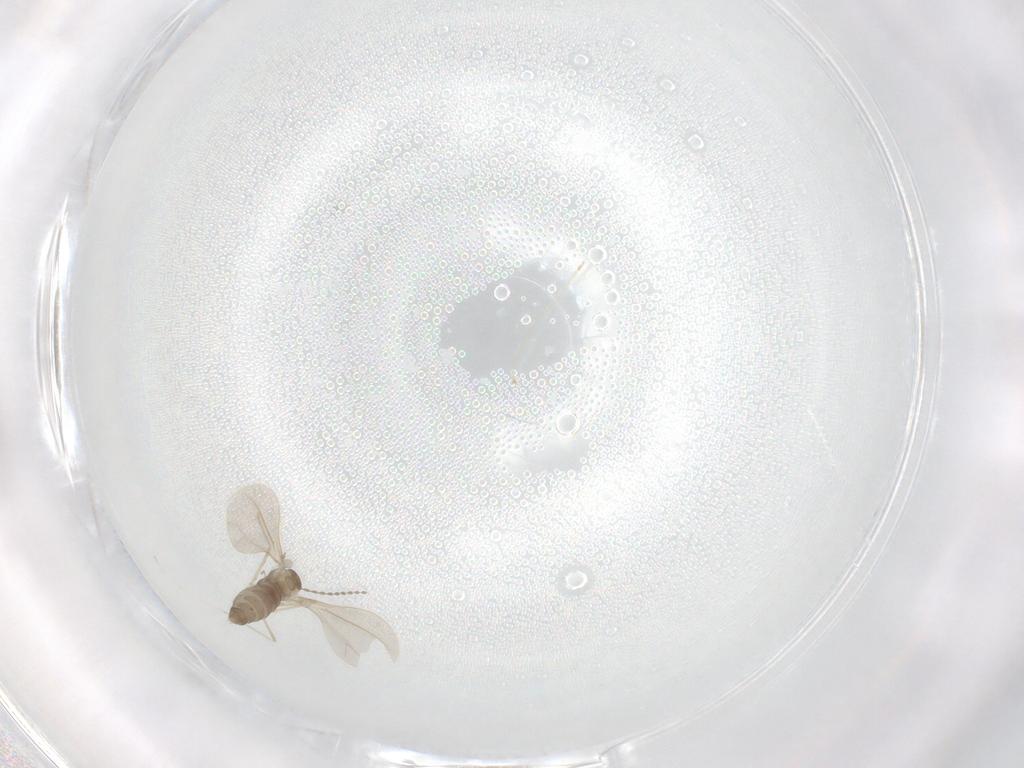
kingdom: Animalia
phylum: Arthropoda
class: Insecta
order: Diptera
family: Cecidomyiidae
